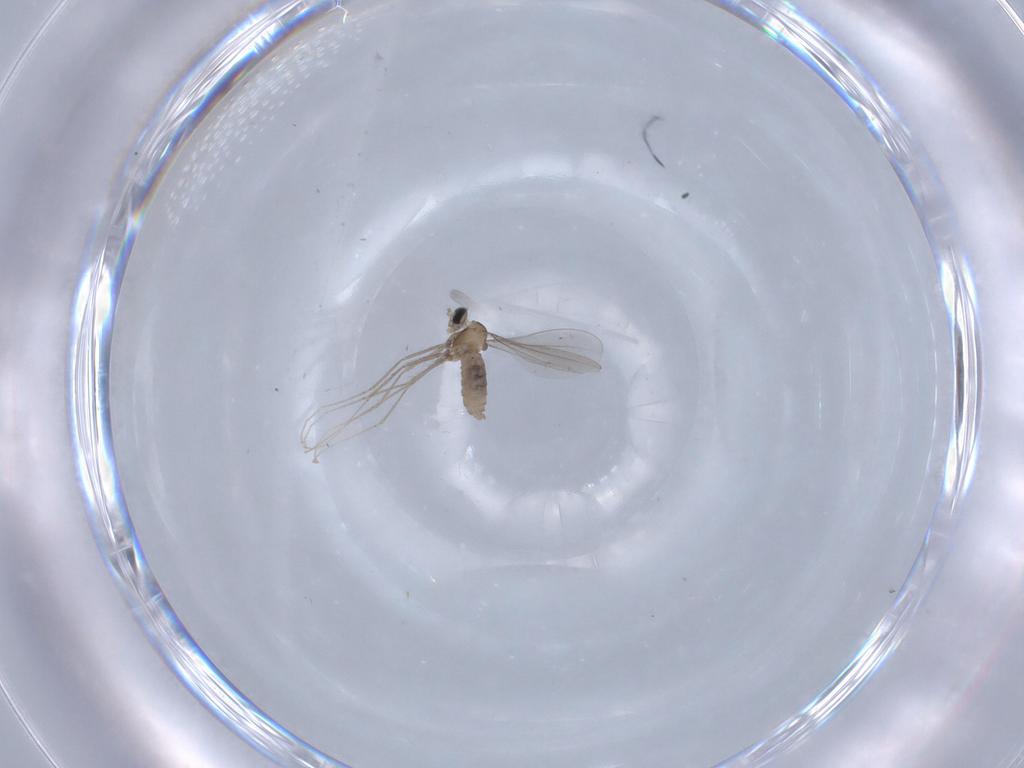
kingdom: Animalia
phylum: Arthropoda
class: Insecta
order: Diptera
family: Cecidomyiidae
